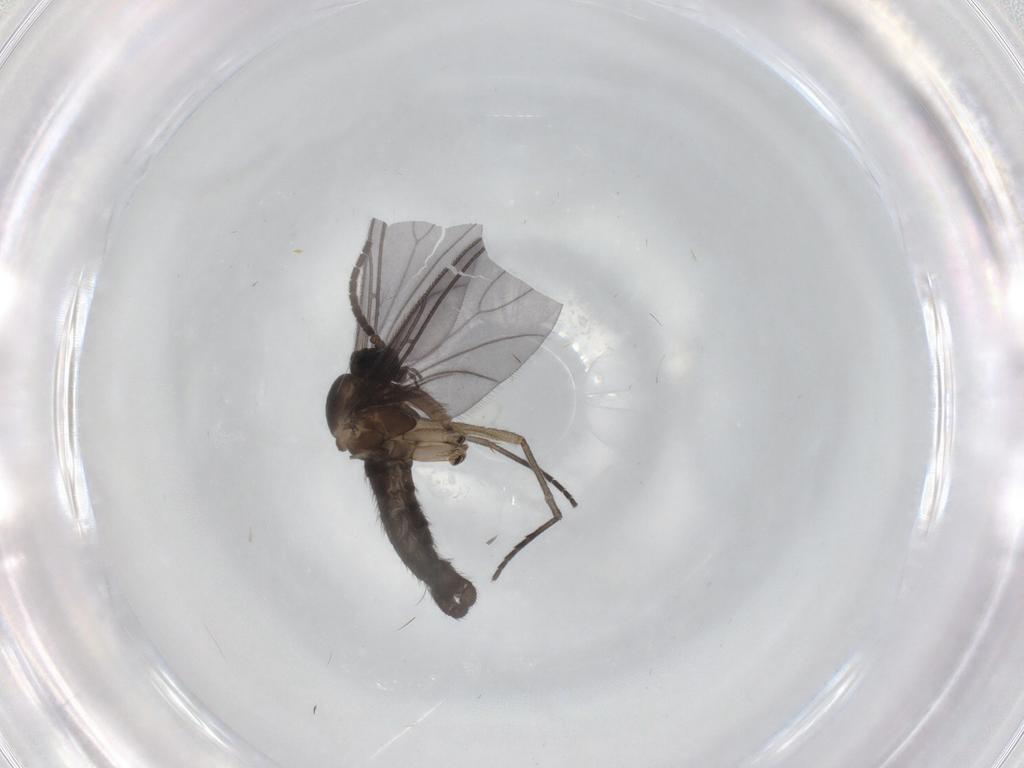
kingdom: Animalia
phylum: Arthropoda
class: Insecta
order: Diptera
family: Sciaridae
